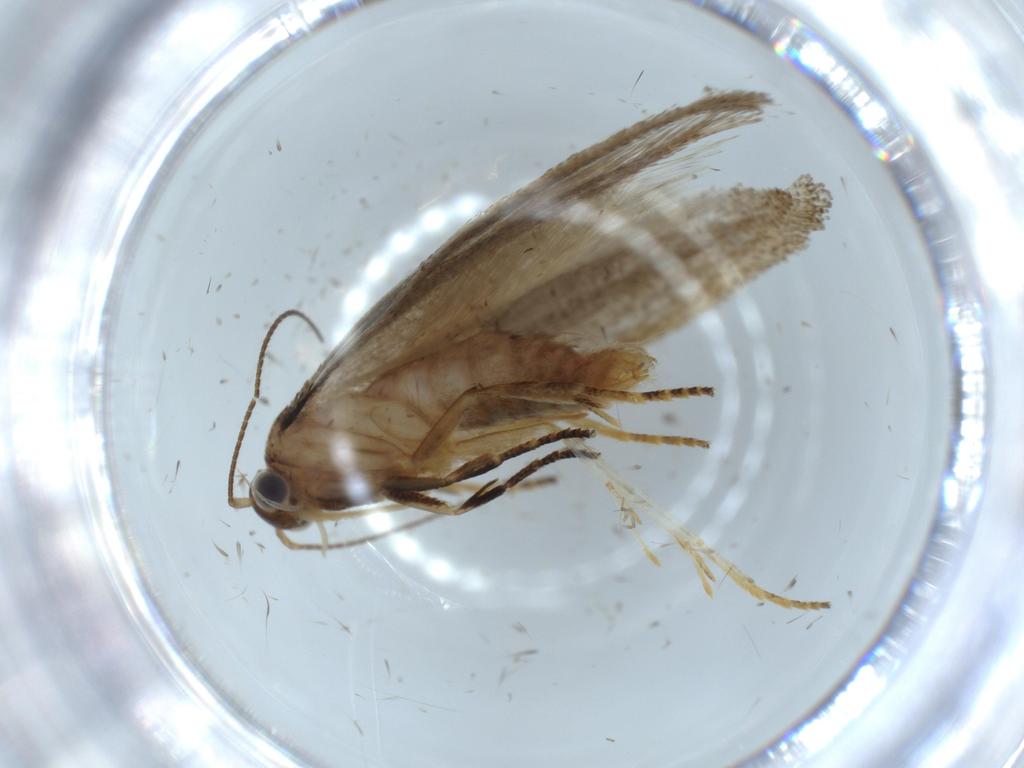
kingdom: Animalia
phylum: Arthropoda
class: Insecta
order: Lepidoptera
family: Oecophoridae
